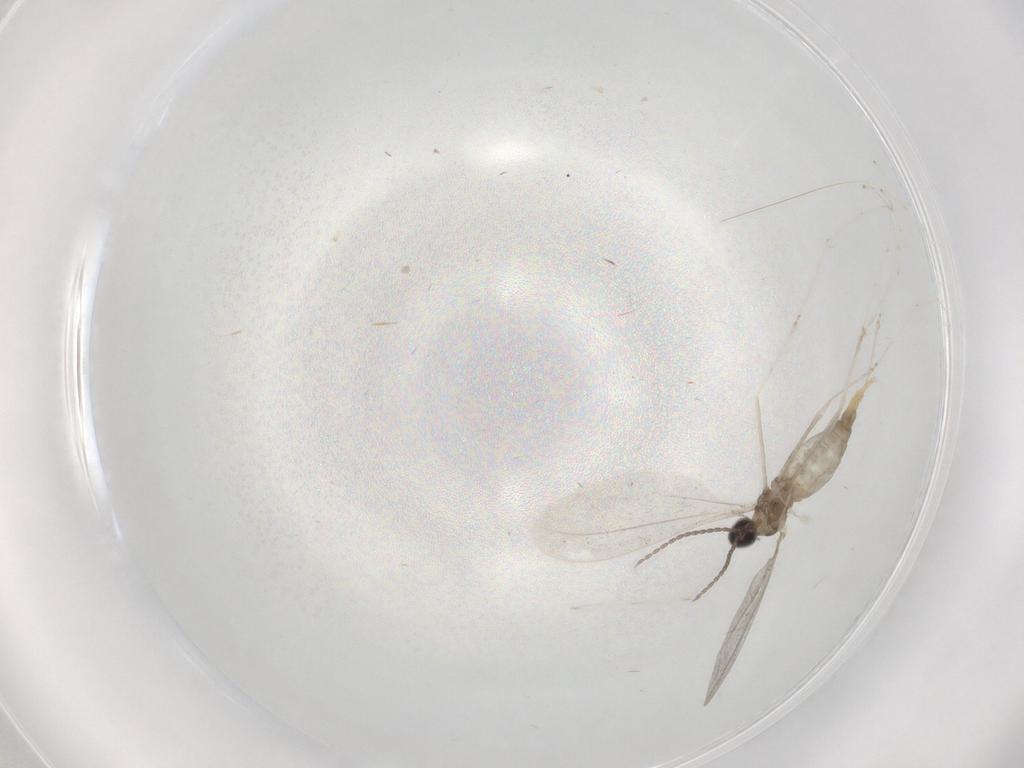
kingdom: Animalia
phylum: Arthropoda
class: Insecta
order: Diptera
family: Cecidomyiidae
